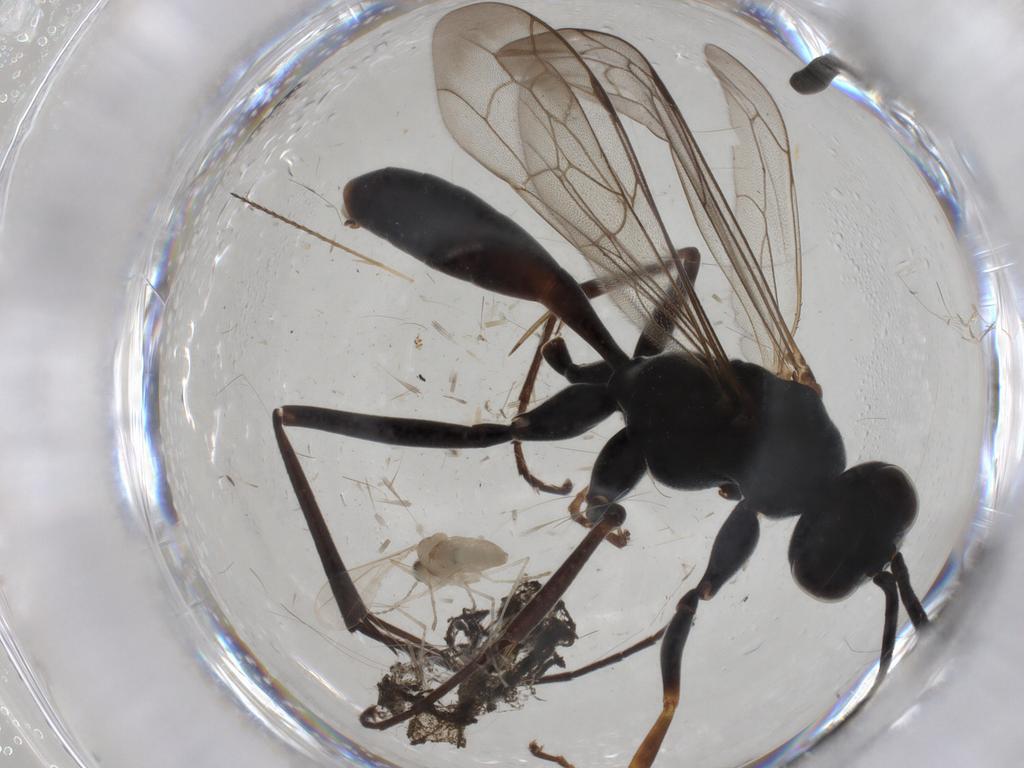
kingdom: Animalia
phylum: Arthropoda
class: Insecta
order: Hymenoptera
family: Pompilidae
